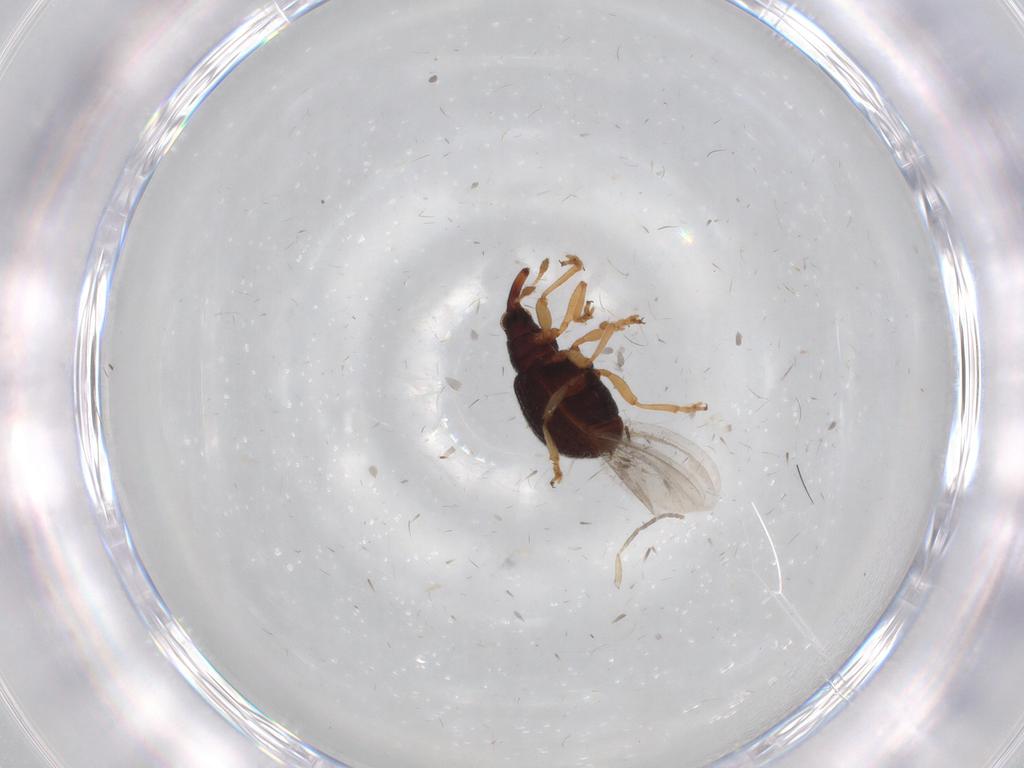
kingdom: Animalia
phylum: Arthropoda
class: Insecta
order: Coleoptera
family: Brentidae
